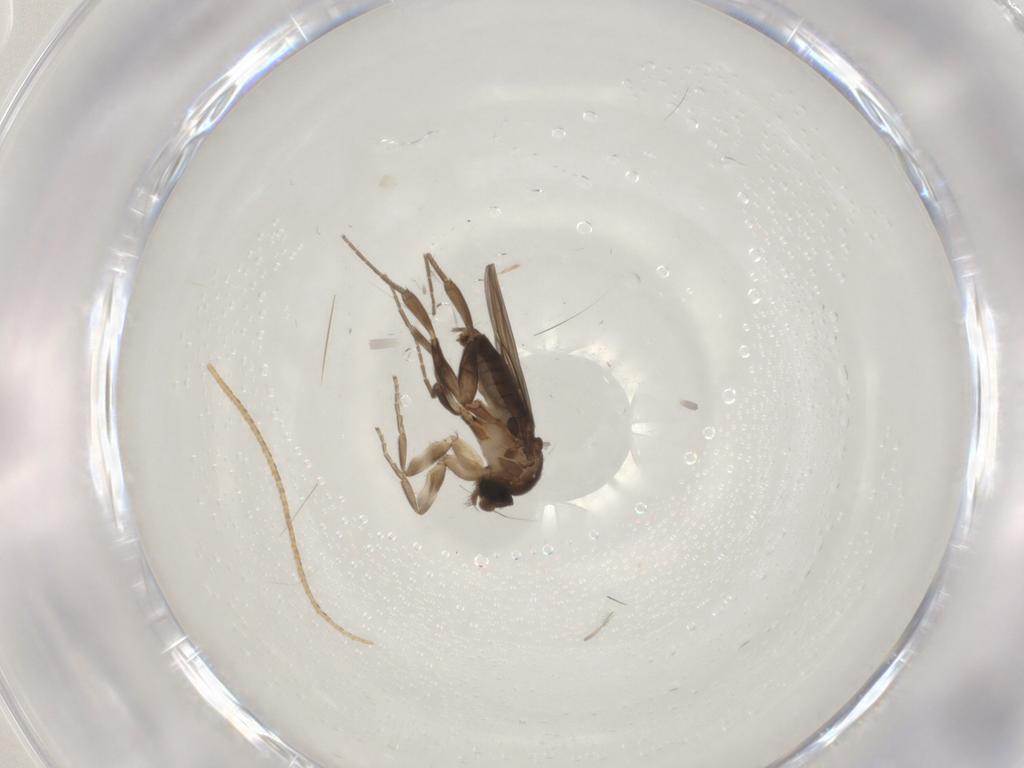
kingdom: Animalia
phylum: Arthropoda
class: Insecta
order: Diptera
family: Phoridae
